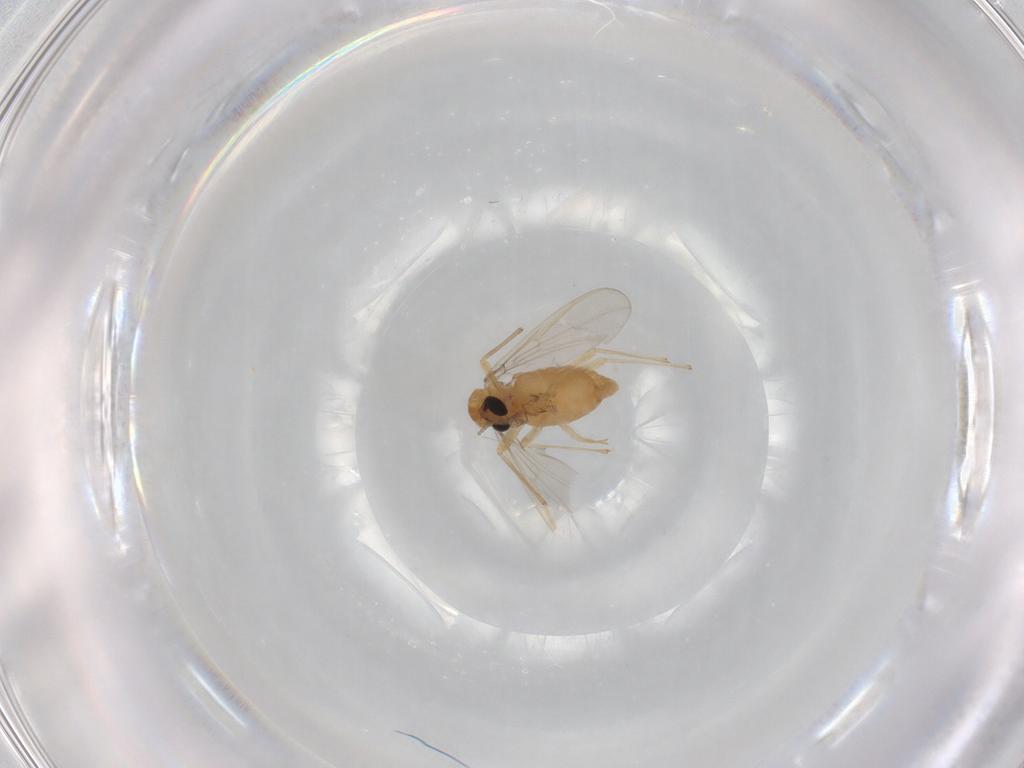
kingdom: Animalia
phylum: Arthropoda
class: Insecta
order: Diptera
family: Chironomidae
